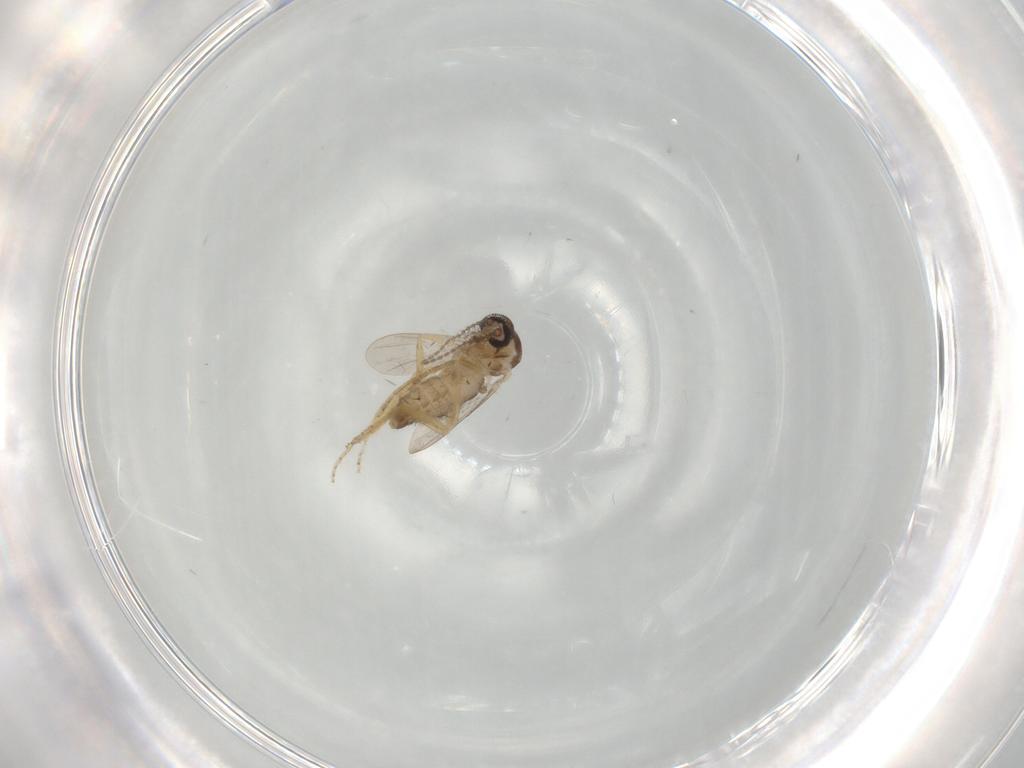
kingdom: Animalia
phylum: Arthropoda
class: Insecta
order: Diptera
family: Ceratopogonidae
